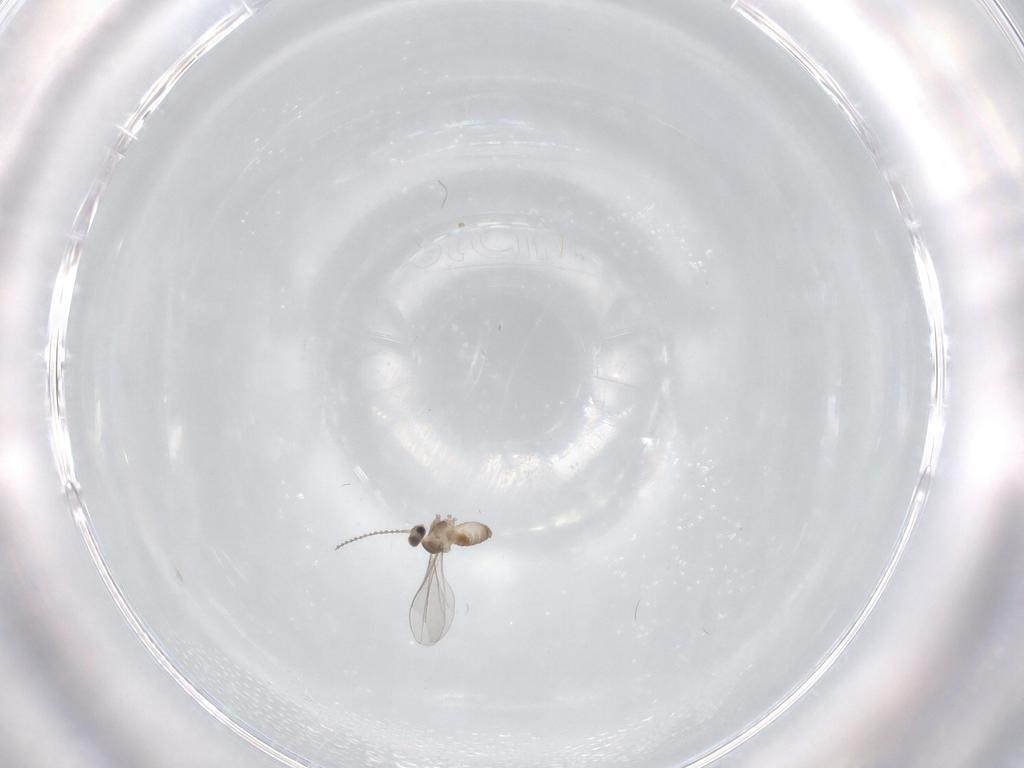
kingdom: Animalia
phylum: Arthropoda
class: Insecta
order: Diptera
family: Cecidomyiidae
